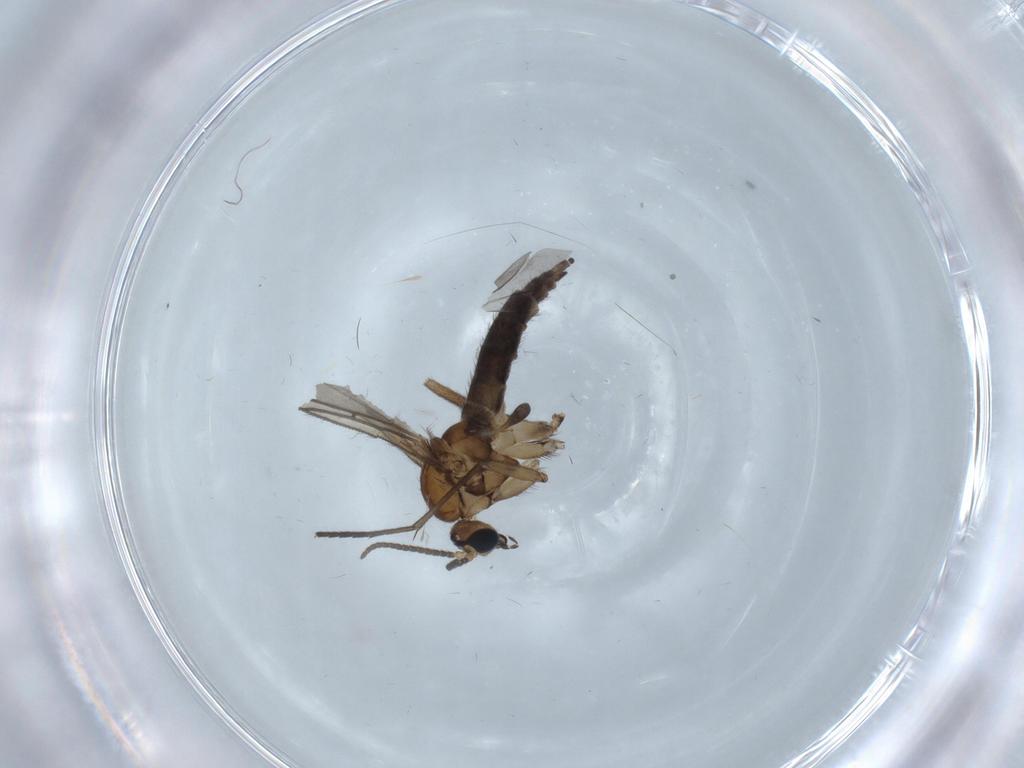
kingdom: Animalia
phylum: Arthropoda
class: Insecta
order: Diptera
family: Sciaridae
